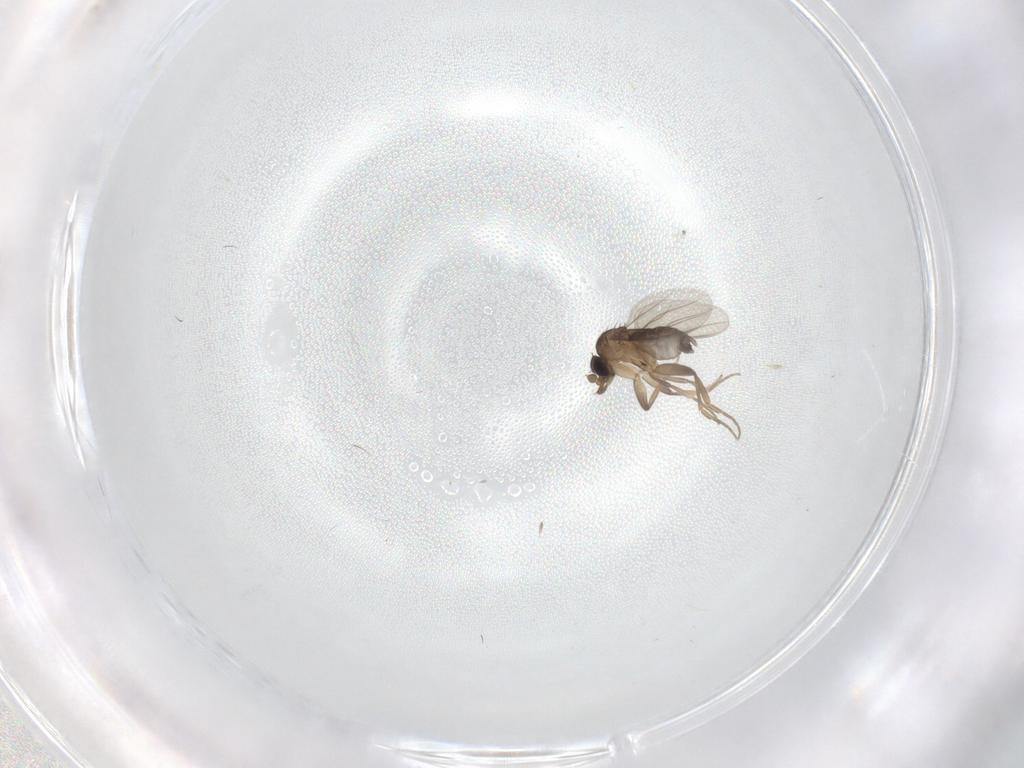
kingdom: Animalia
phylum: Arthropoda
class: Insecta
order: Diptera
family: Phoridae
